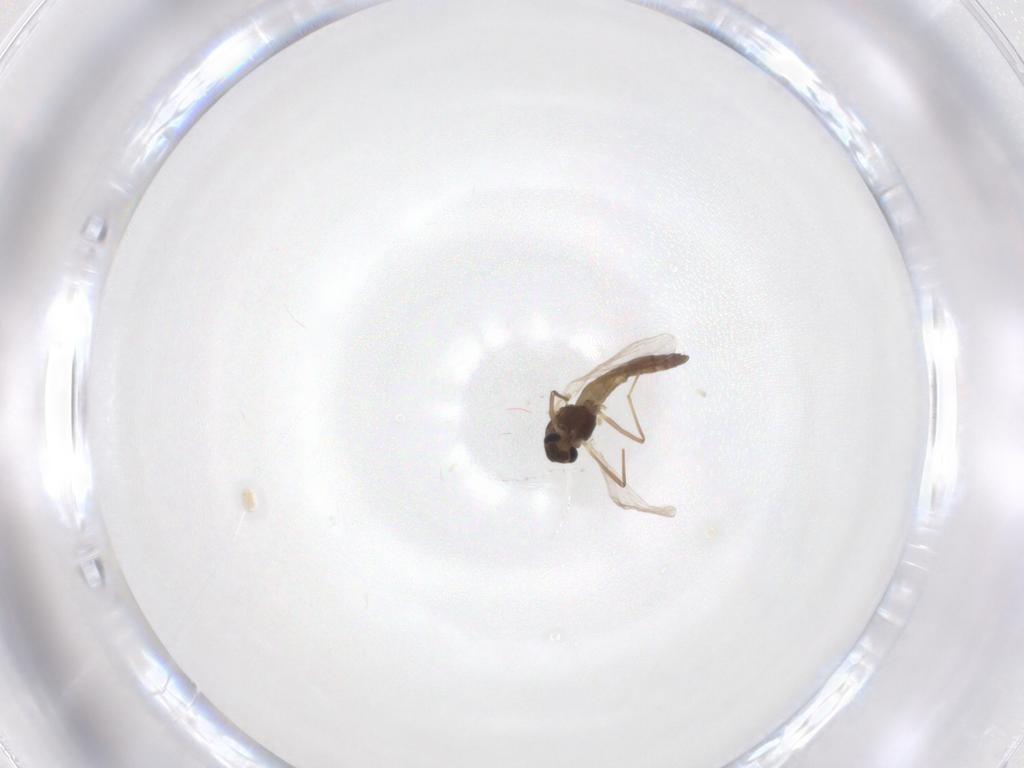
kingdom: Animalia
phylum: Arthropoda
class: Insecta
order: Diptera
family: Chironomidae
